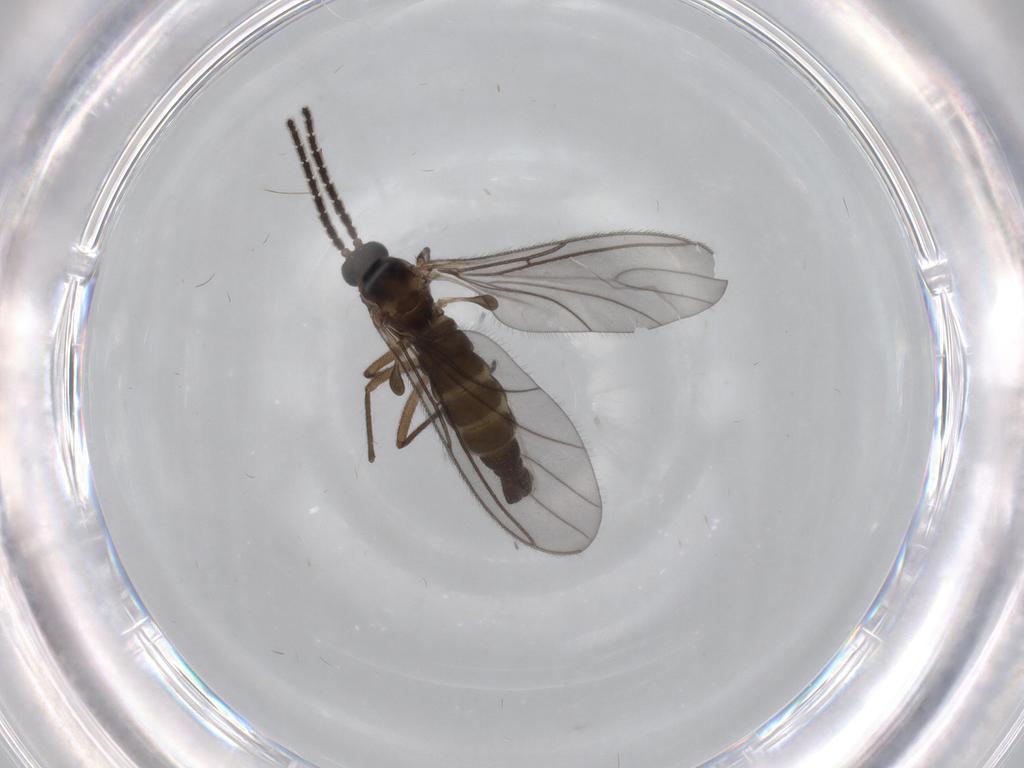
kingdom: Animalia
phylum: Arthropoda
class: Insecta
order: Diptera
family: Sciaridae
